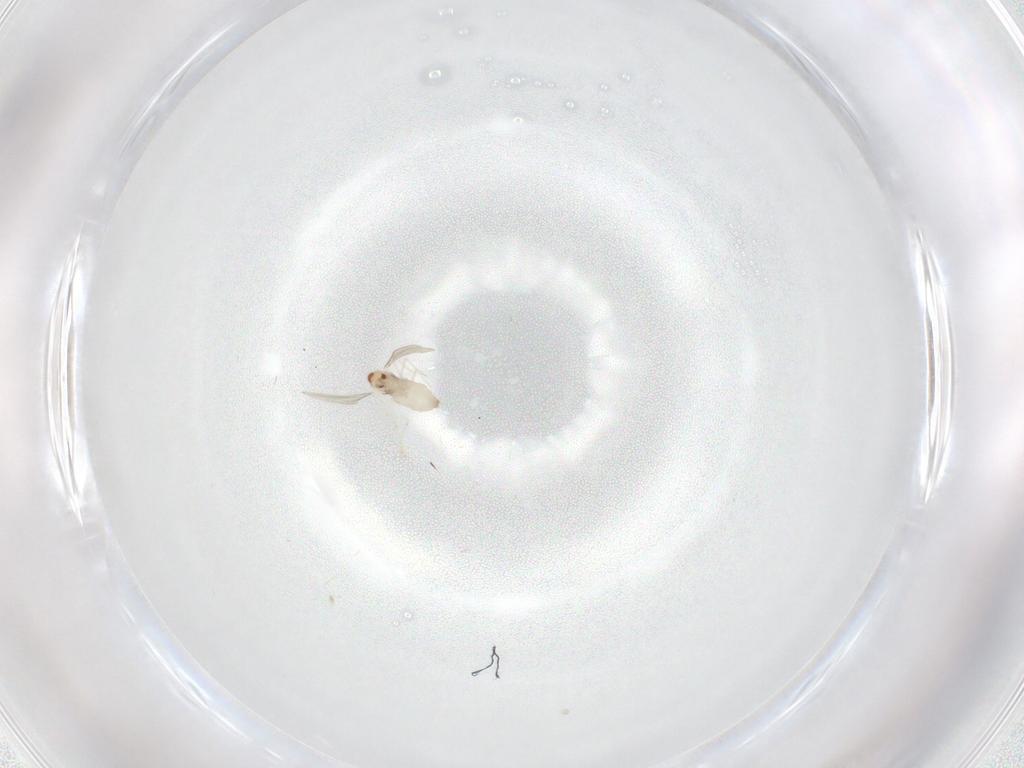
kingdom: Animalia
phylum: Arthropoda
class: Insecta
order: Diptera
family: Cecidomyiidae
